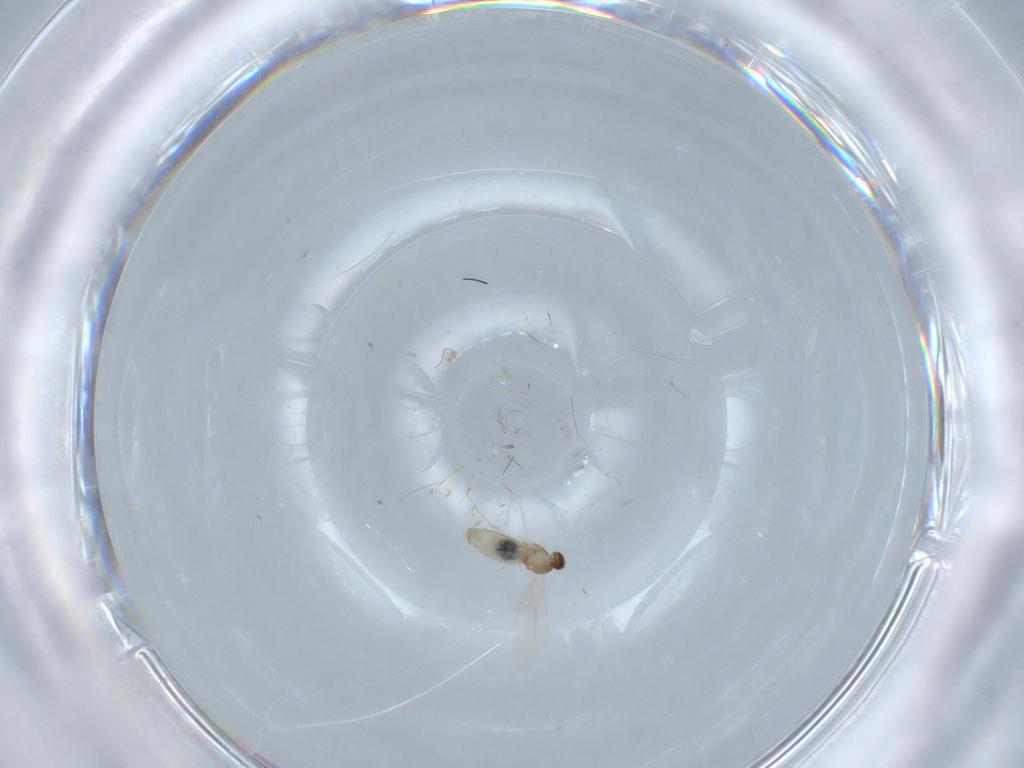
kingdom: Animalia
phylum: Arthropoda
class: Insecta
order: Diptera
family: Cecidomyiidae
